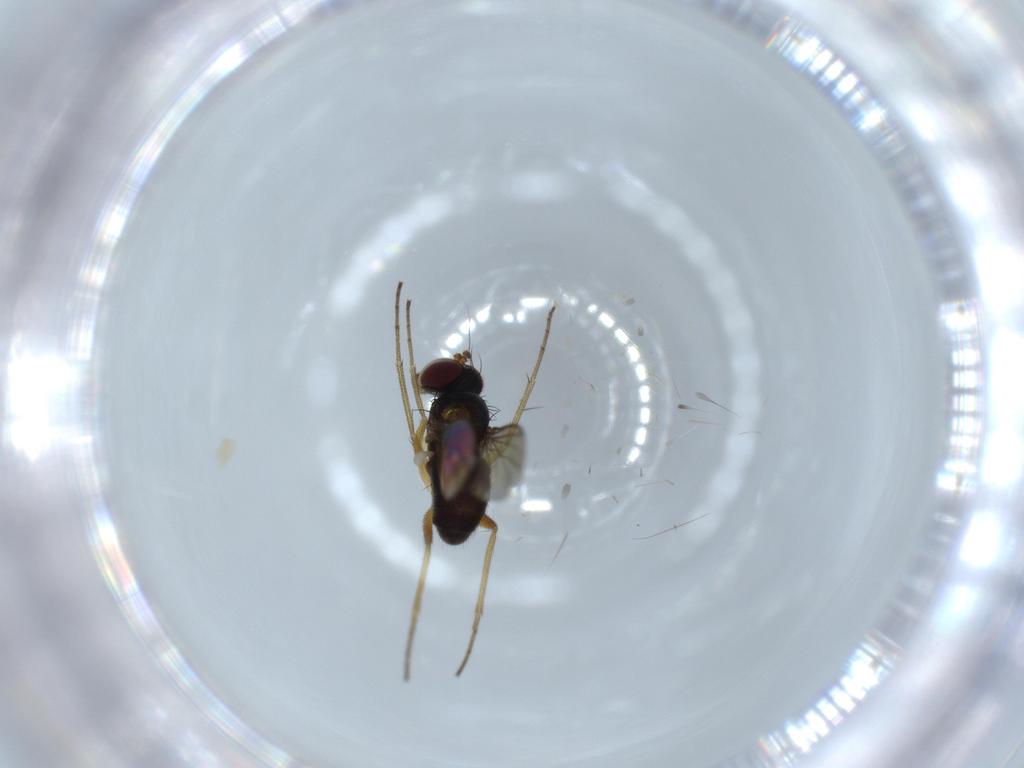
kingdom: Animalia
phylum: Arthropoda
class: Insecta
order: Diptera
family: Dolichopodidae
